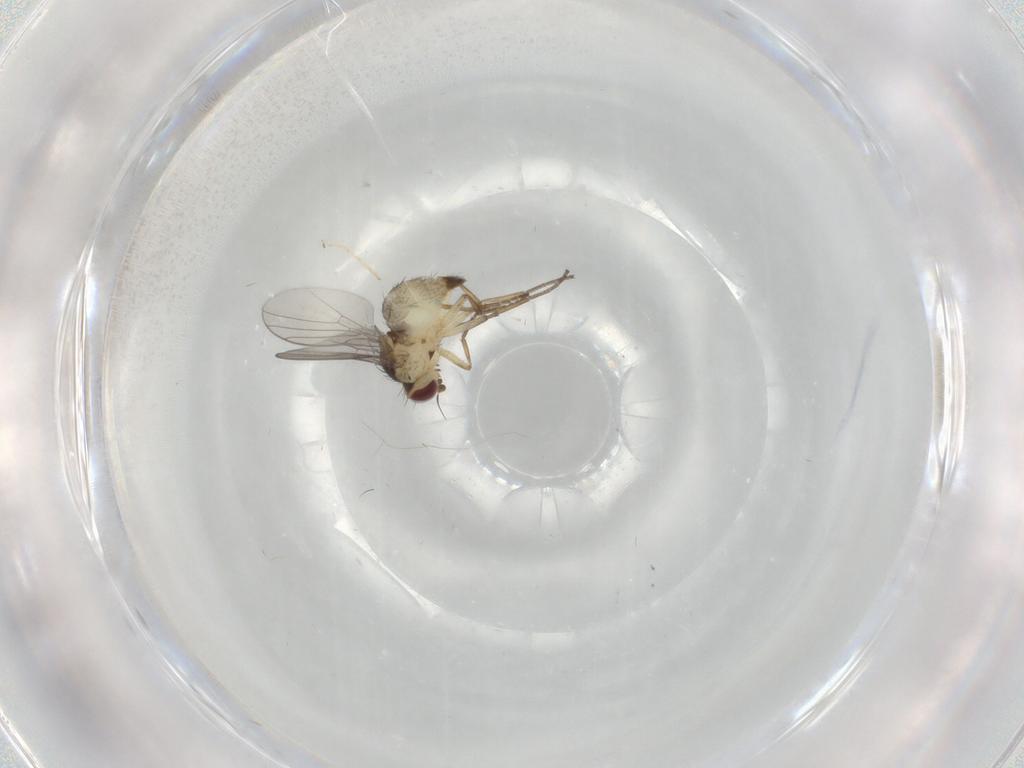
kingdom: Animalia
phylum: Arthropoda
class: Insecta
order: Diptera
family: Agromyzidae
